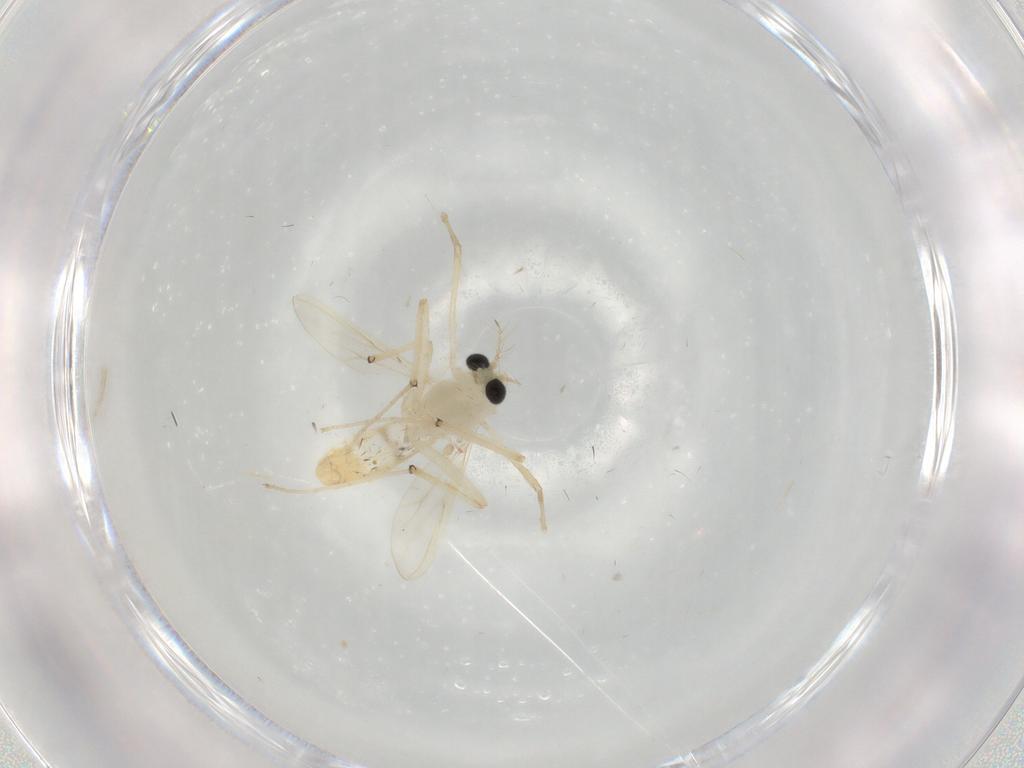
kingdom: Animalia
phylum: Arthropoda
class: Insecta
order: Diptera
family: Chironomidae
